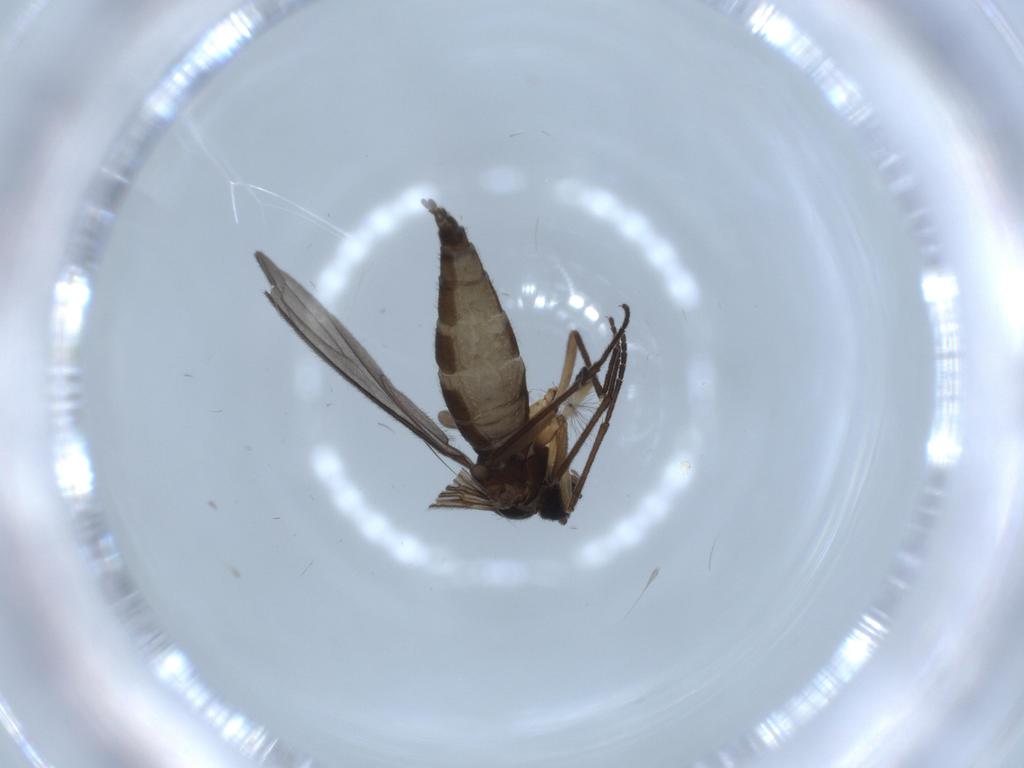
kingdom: Animalia
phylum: Arthropoda
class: Insecta
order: Diptera
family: Sciaridae
